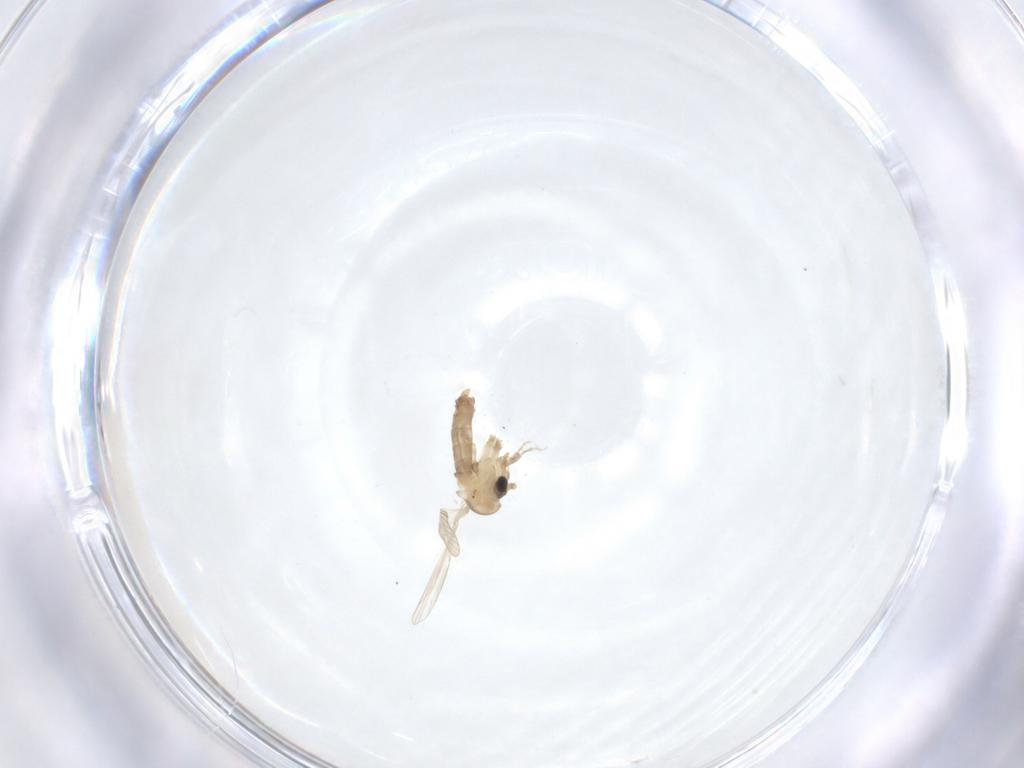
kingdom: Animalia
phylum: Arthropoda
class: Insecta
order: Diptera
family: Psychodidae
